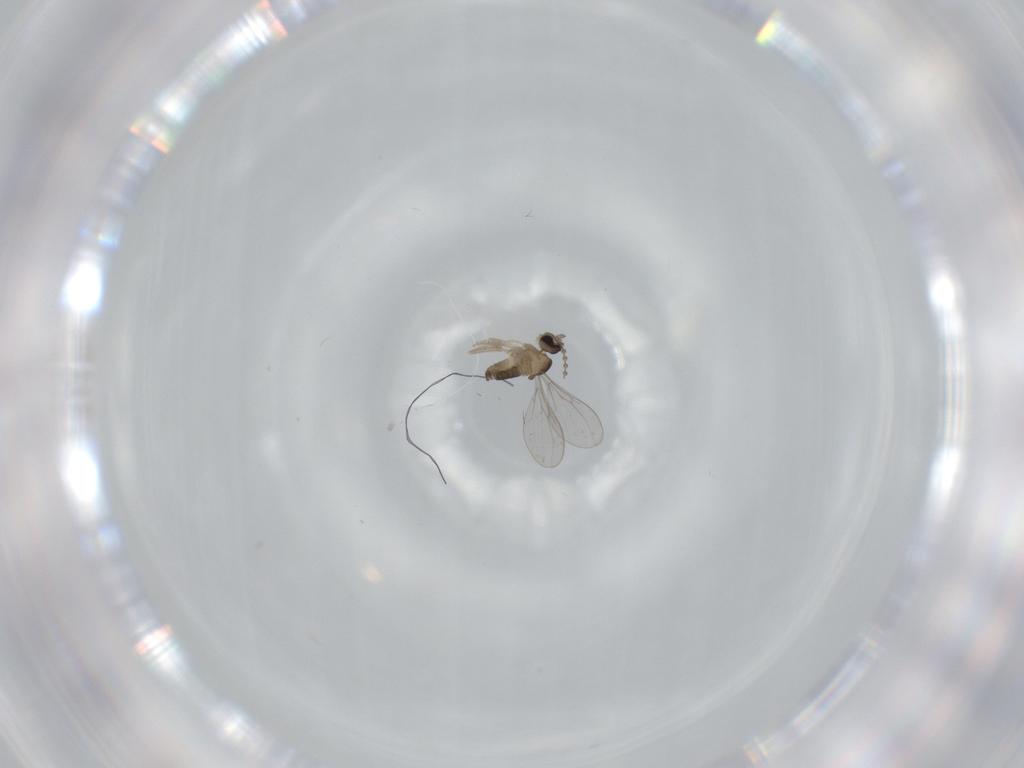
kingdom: Animalia
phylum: Arthropoda
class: Insecta
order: Diptera
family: Cecidomyiidae
